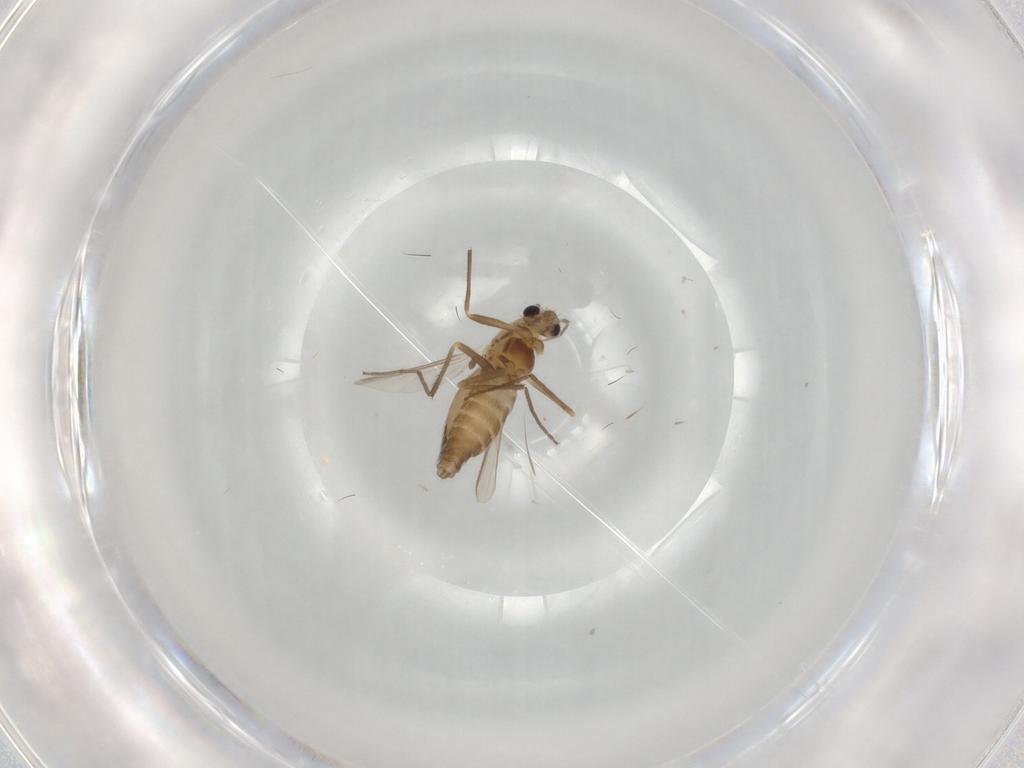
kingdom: Animalia
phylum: Arthropoda
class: Insecta
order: Diptera
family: Chironomidae
